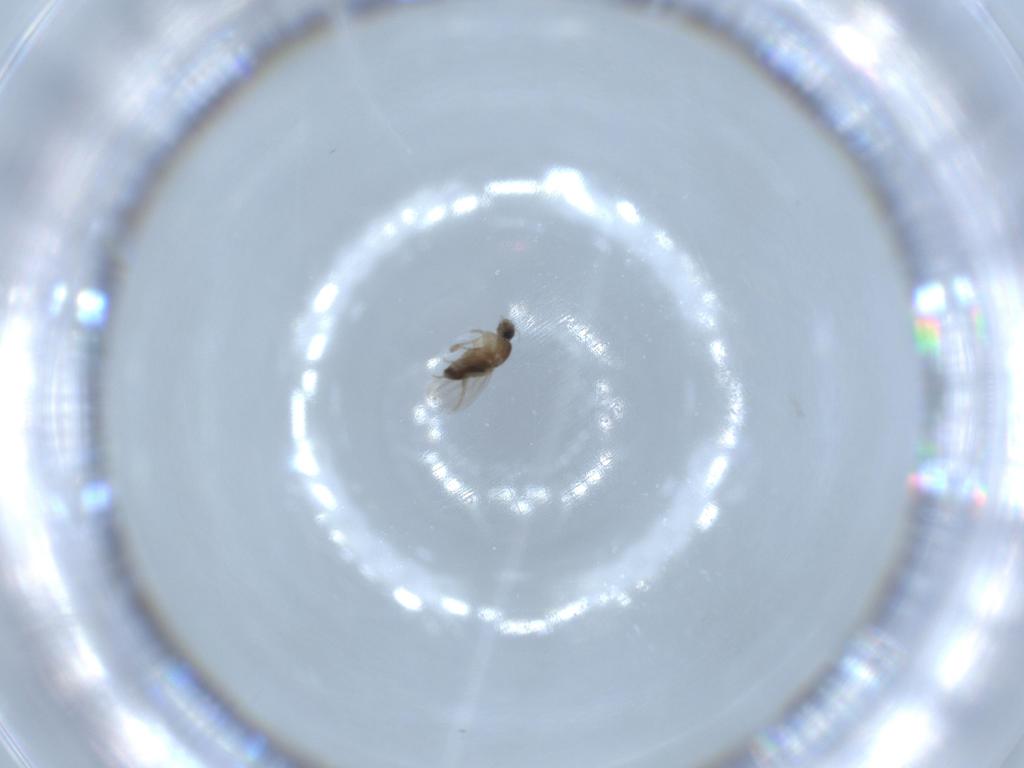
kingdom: Animalia
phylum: Arthropoda
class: Insecta
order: Diptera
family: Phoridae
